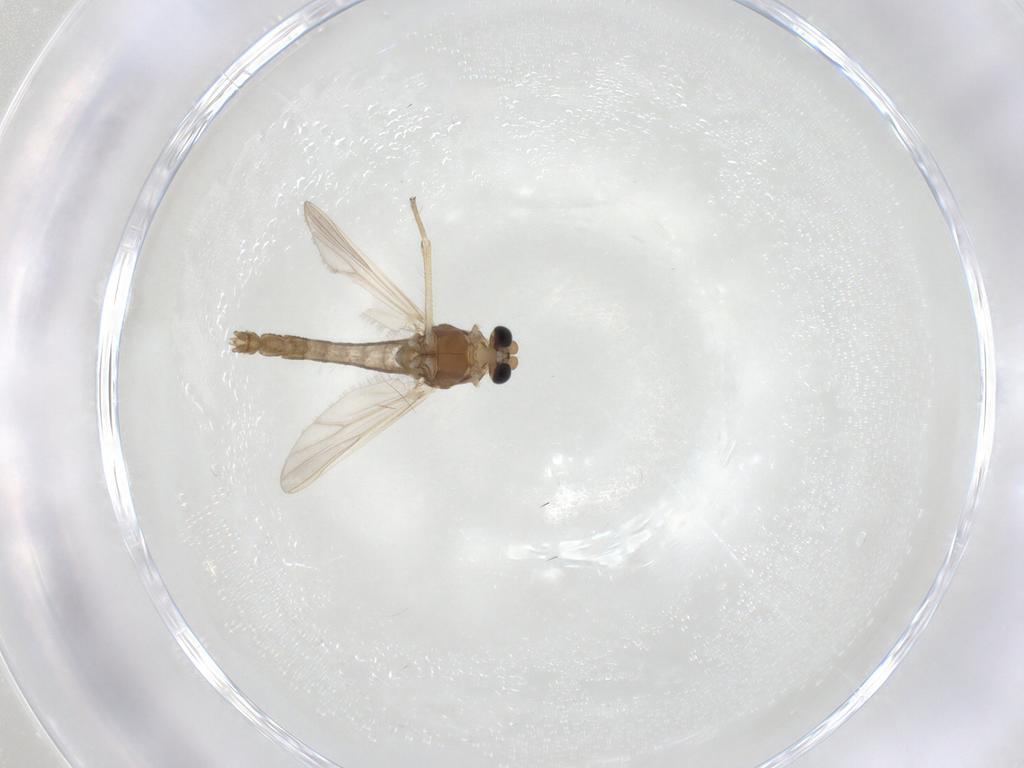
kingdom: Animalia
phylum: Arthropoda
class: Insecta
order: Diptera
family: Chironomidae
